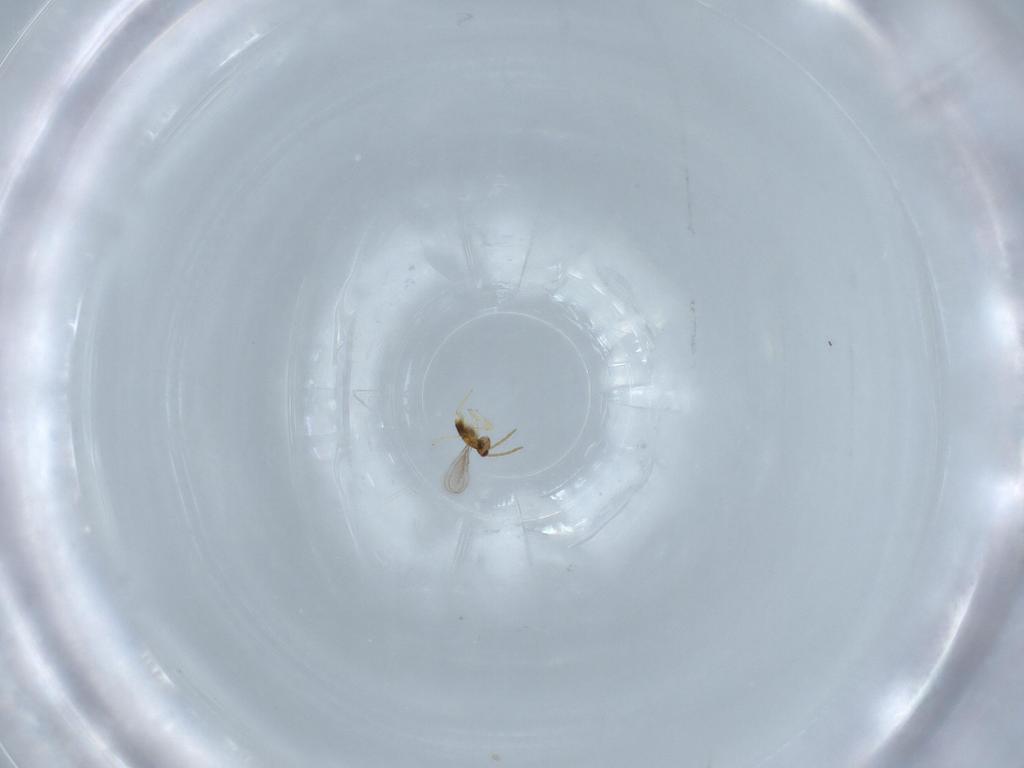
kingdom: Animalia
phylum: Arthropoda
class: Insecta
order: Hymenoptera
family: Aphelinidae
